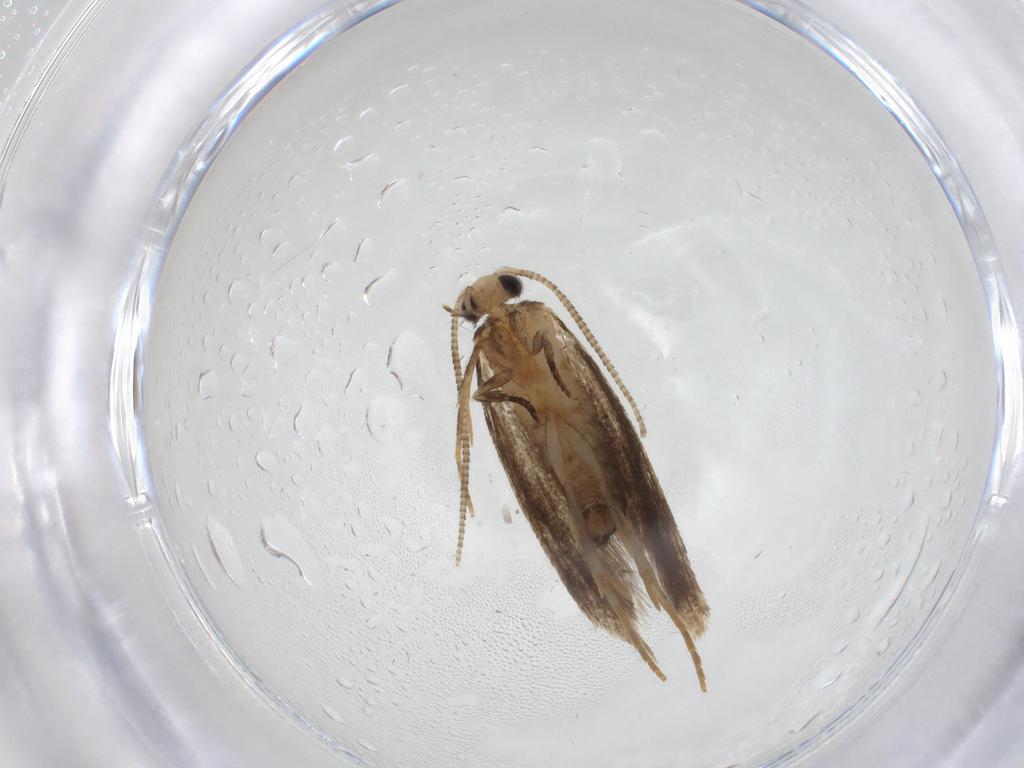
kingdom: Animalia
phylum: Arthropoda
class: Insecta
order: Lepidoptera
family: Tineidae
